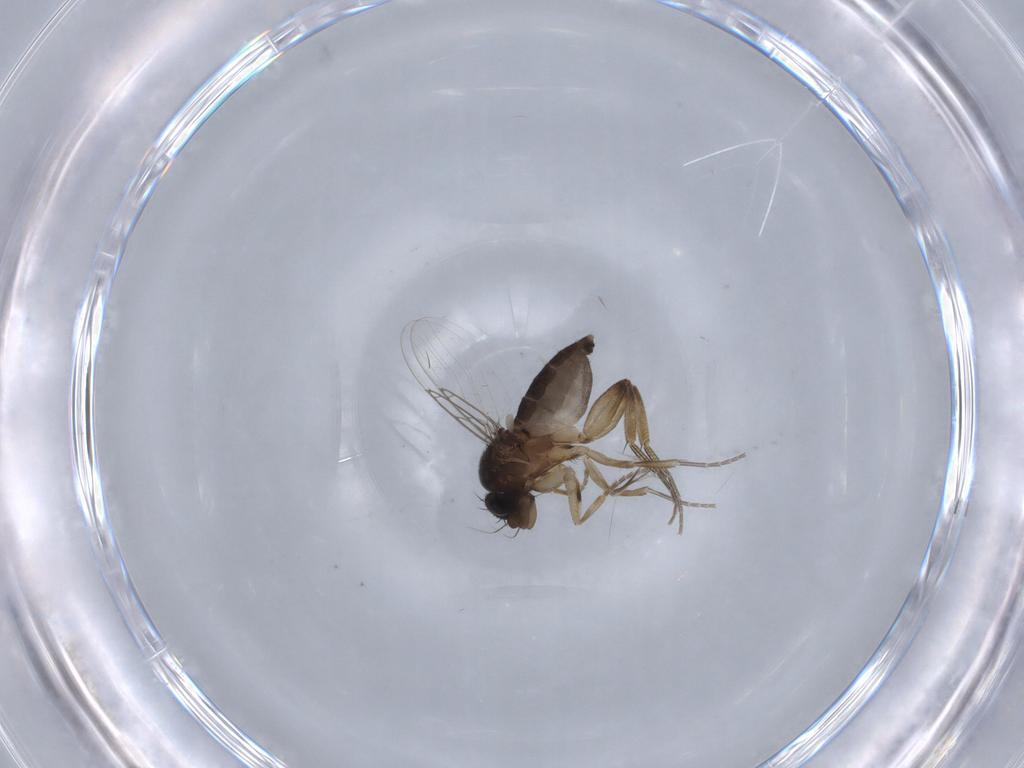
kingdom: Animalia
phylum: Arthropoda
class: Insecta
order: Diptera
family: Phoridae
